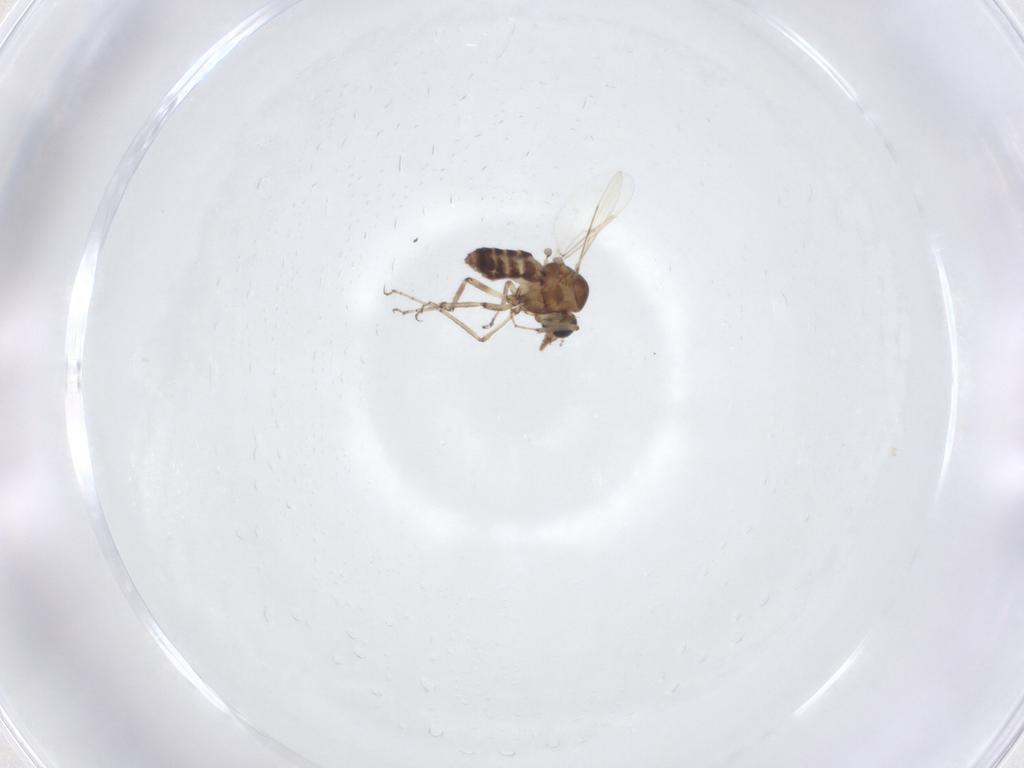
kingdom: Animalia
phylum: Arthropoda
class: Insecta
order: Diptera
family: Ceratopogonidae
